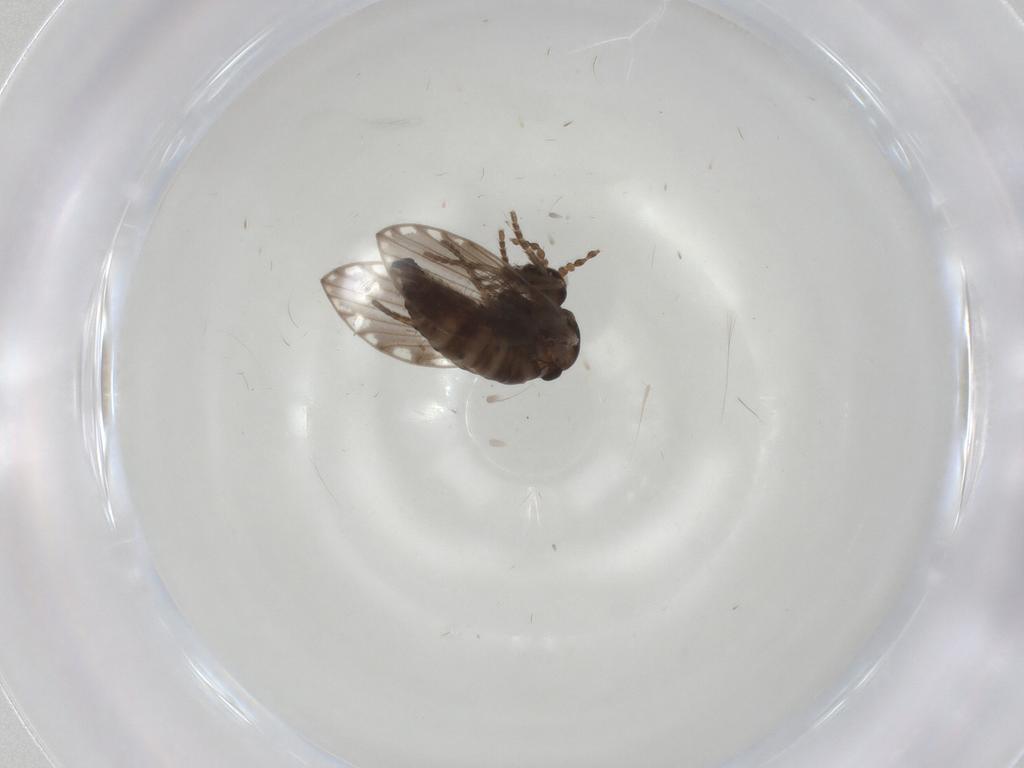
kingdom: Animalia
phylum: Arthropoda
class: Insecta
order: Diptera
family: Psychodidae
